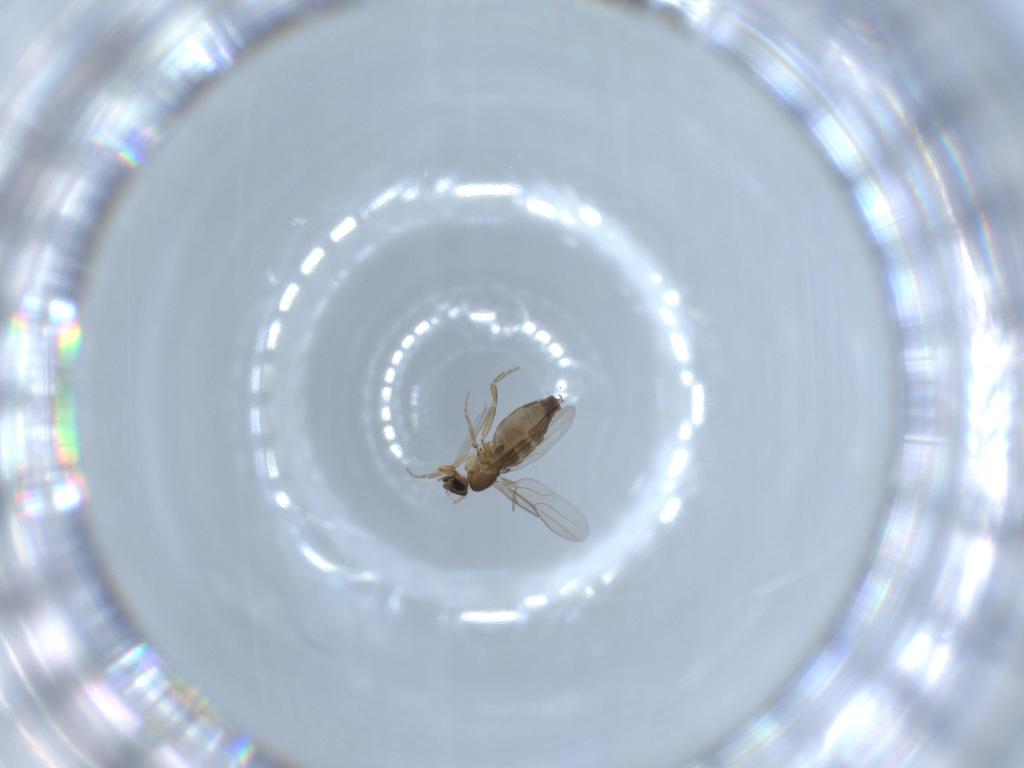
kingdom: Animalia
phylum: Arthropoda
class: Insecta
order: Diptera
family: Phoridae
